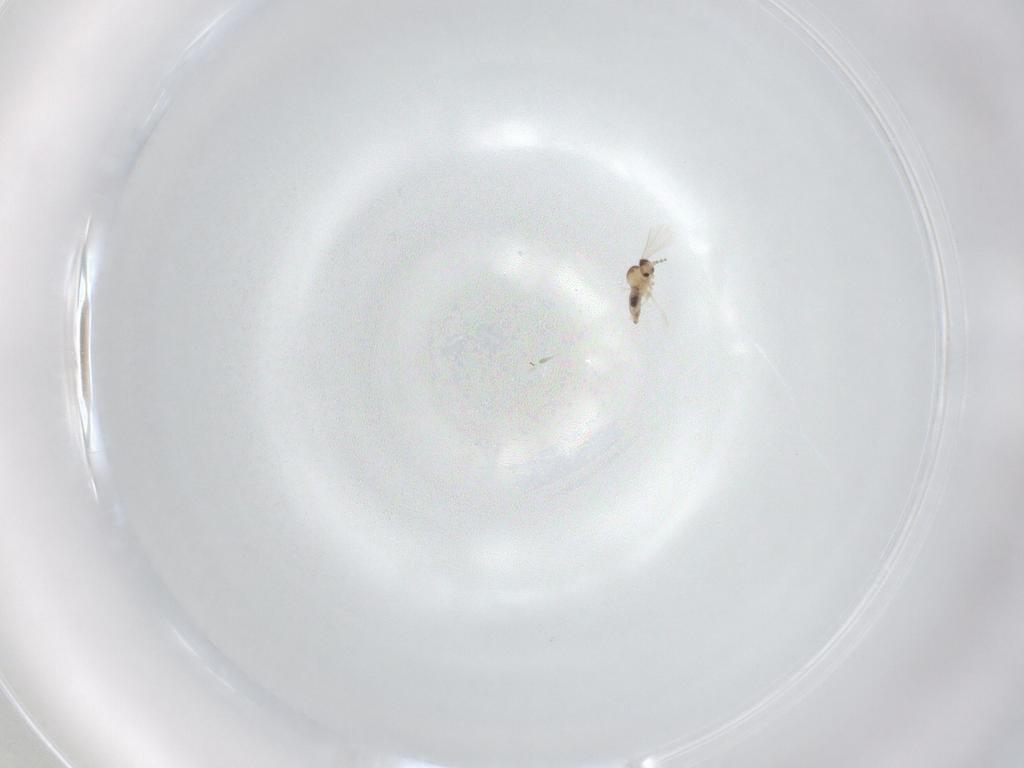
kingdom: Animalia
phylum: Arthropoda
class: Insecta
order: Diptera
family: Cecidomyiidae
